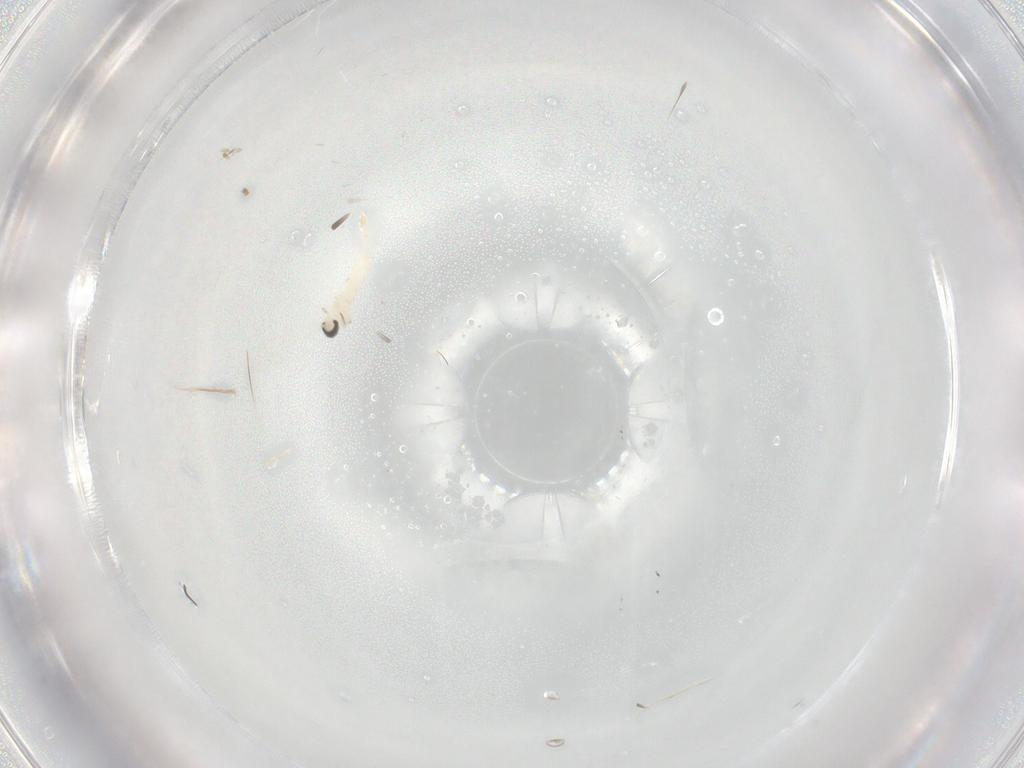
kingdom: Animalia
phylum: Arthropoda
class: Insecta
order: Diptera
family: Cecidomyiidae
